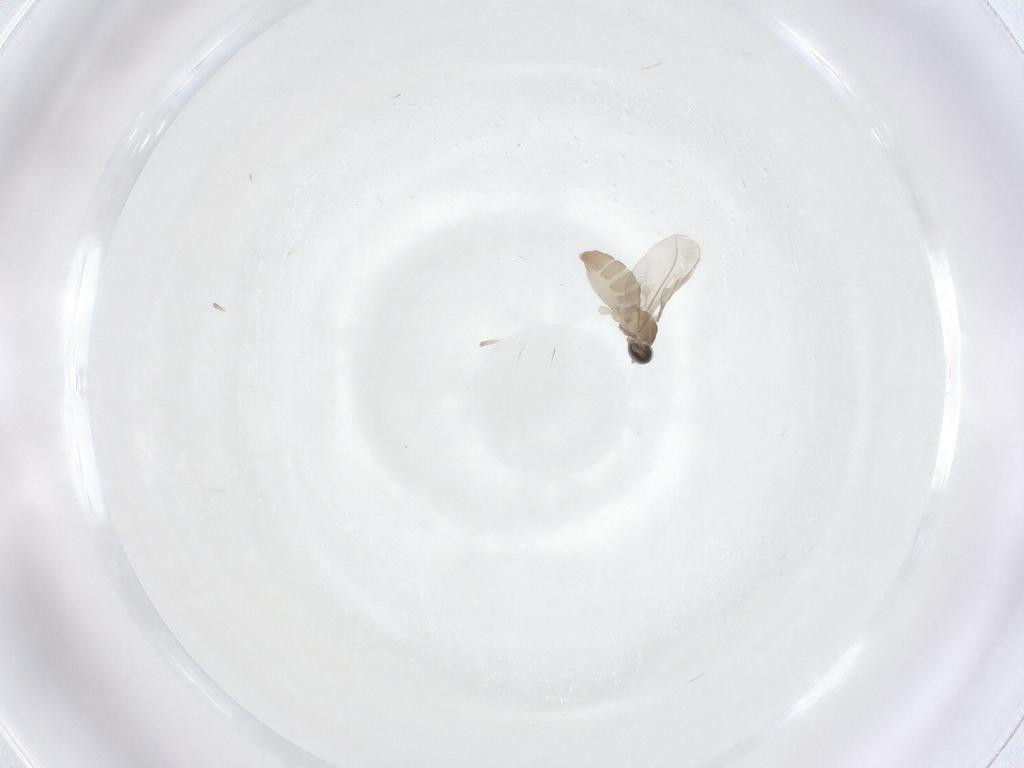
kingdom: Animalia
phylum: Arthropoda
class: Insecta
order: Diptera
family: Cecidomyiidae
